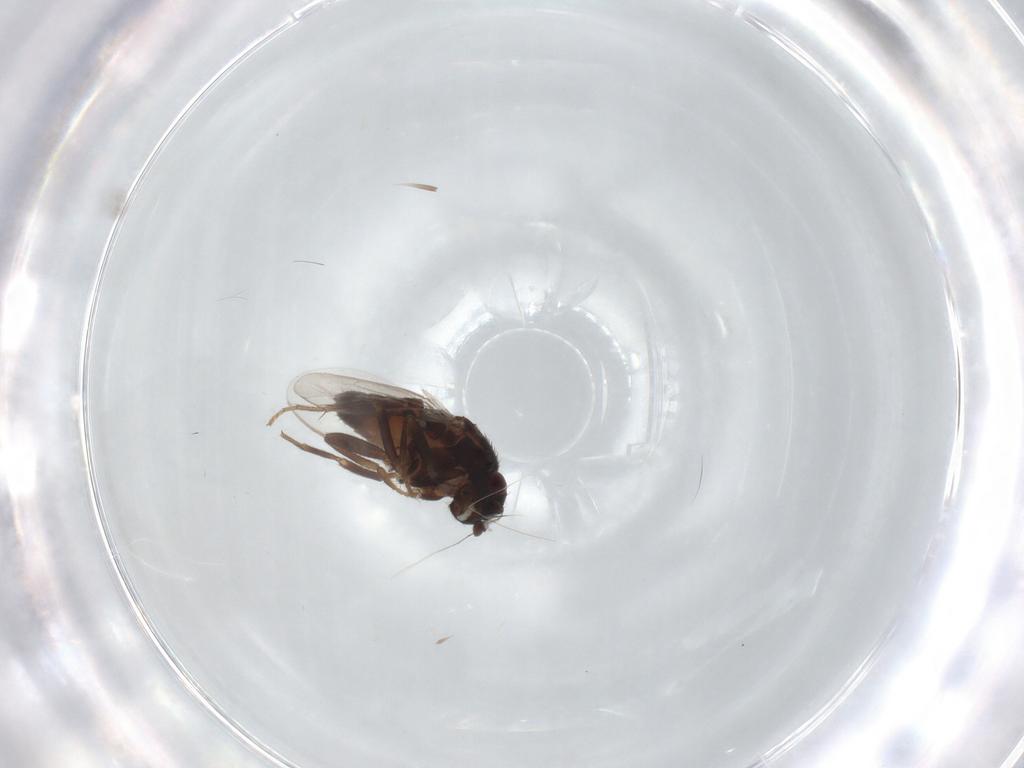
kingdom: Animalia
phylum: Arthropoda
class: Insecta
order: Diptera
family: Sphaeroceridae
